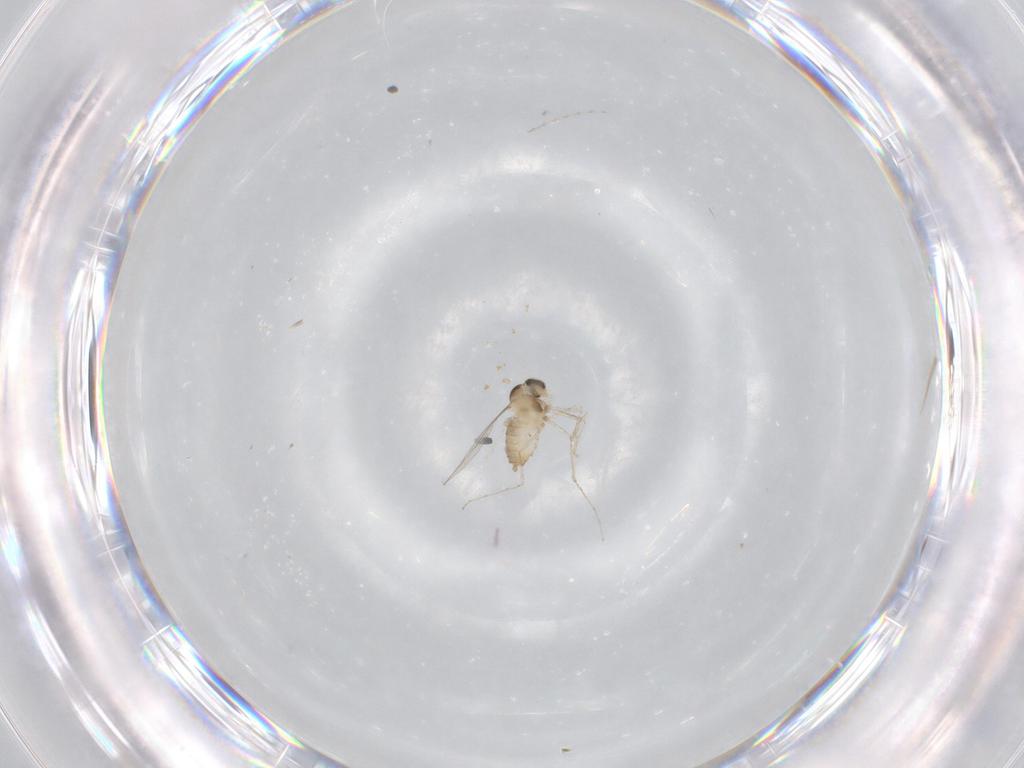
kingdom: Animalia
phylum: Arthropoda
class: Insecta
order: Diptera
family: Cecidomyiidae
